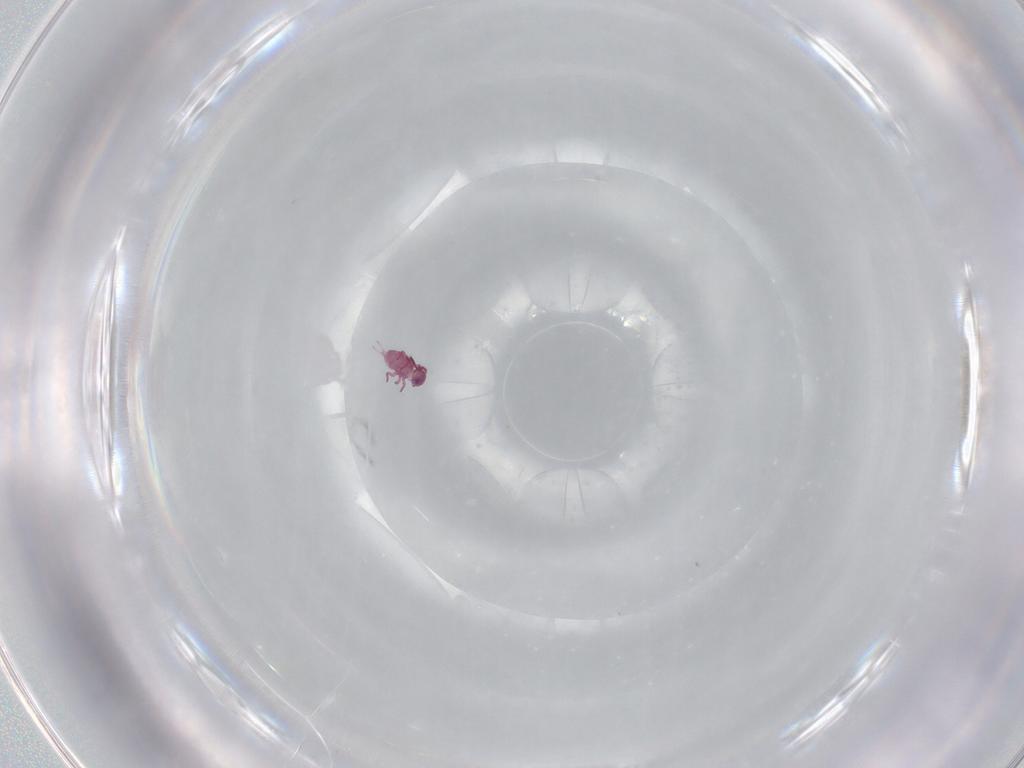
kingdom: Animalia
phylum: Arthropoda
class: Collembola
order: Symphypleona
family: Sminthurididae
